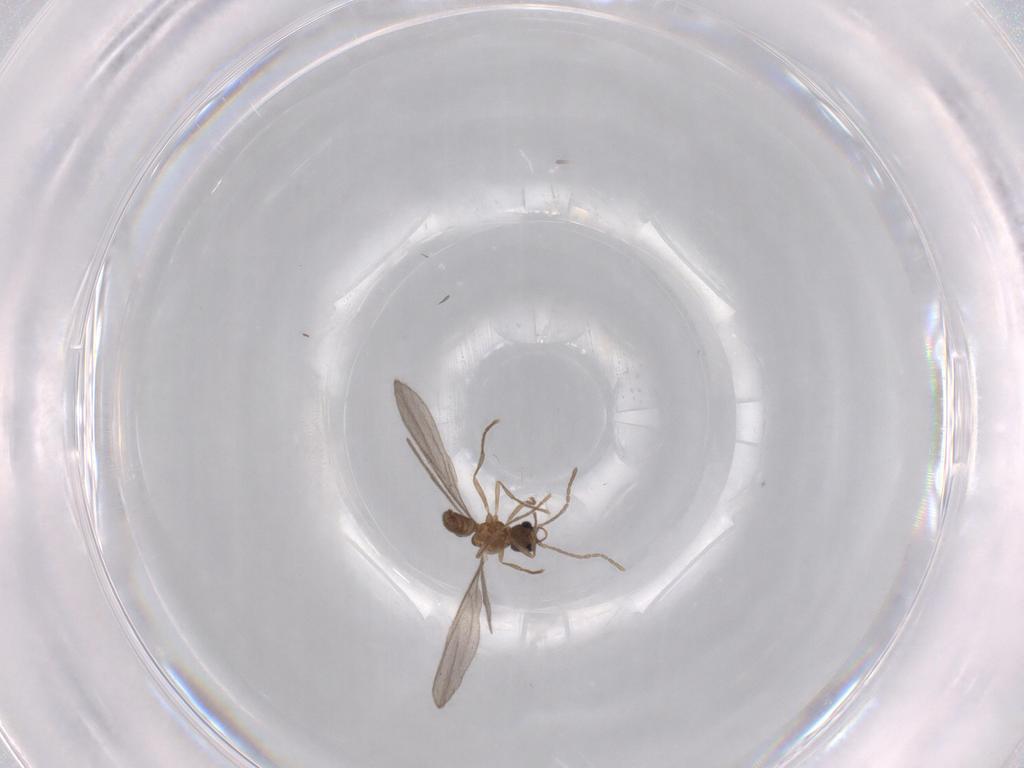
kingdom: Animalia
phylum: Arthropoda
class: Insecta
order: Hymenoptera
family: Formicidae
